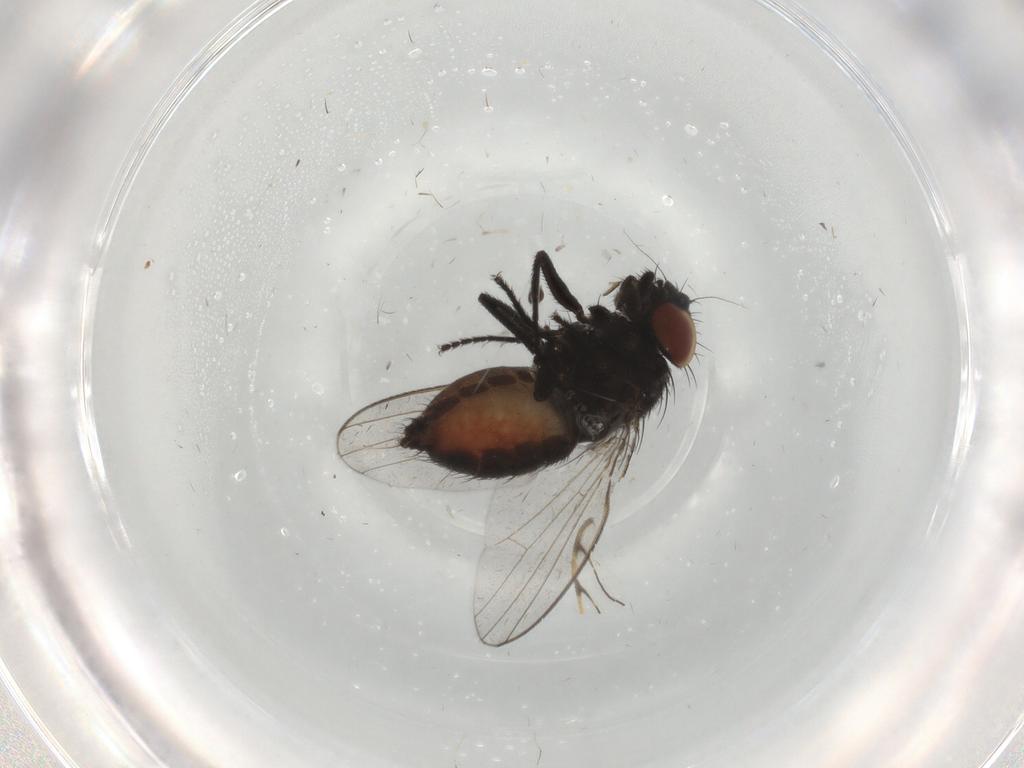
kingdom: Animalia
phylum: Arthropoda
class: Insecta
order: Diptera
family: Milichiidae
